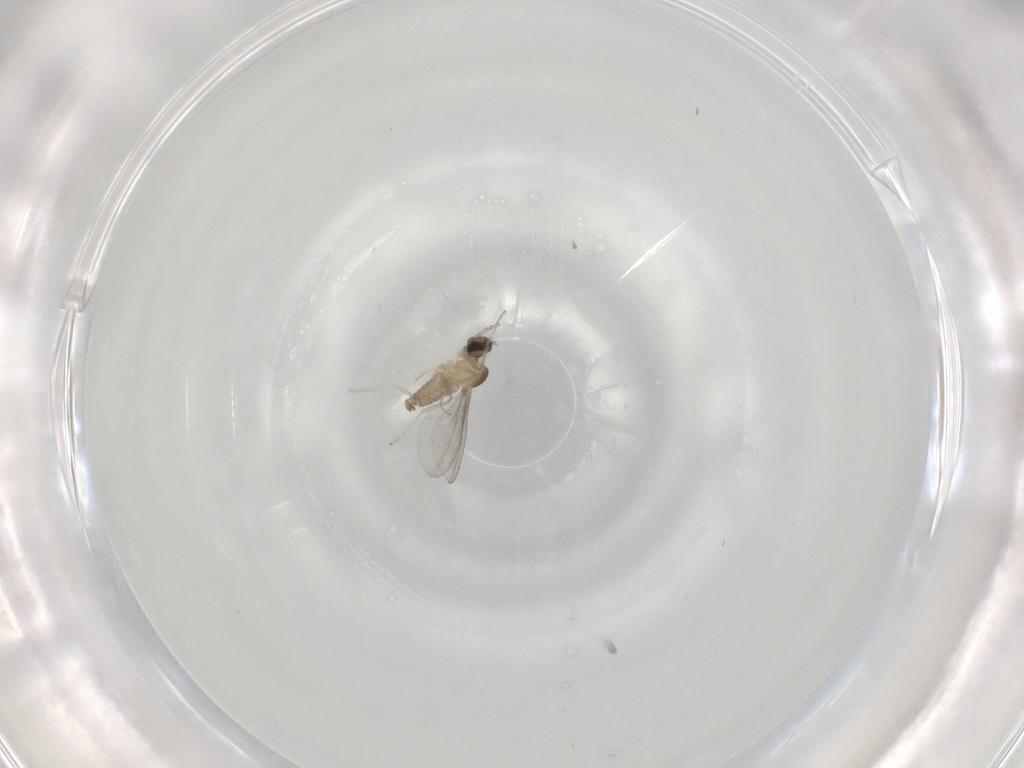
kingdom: Animalia
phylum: Arthropoda
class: Insecta
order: Diptera
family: Cecidomyiidae
